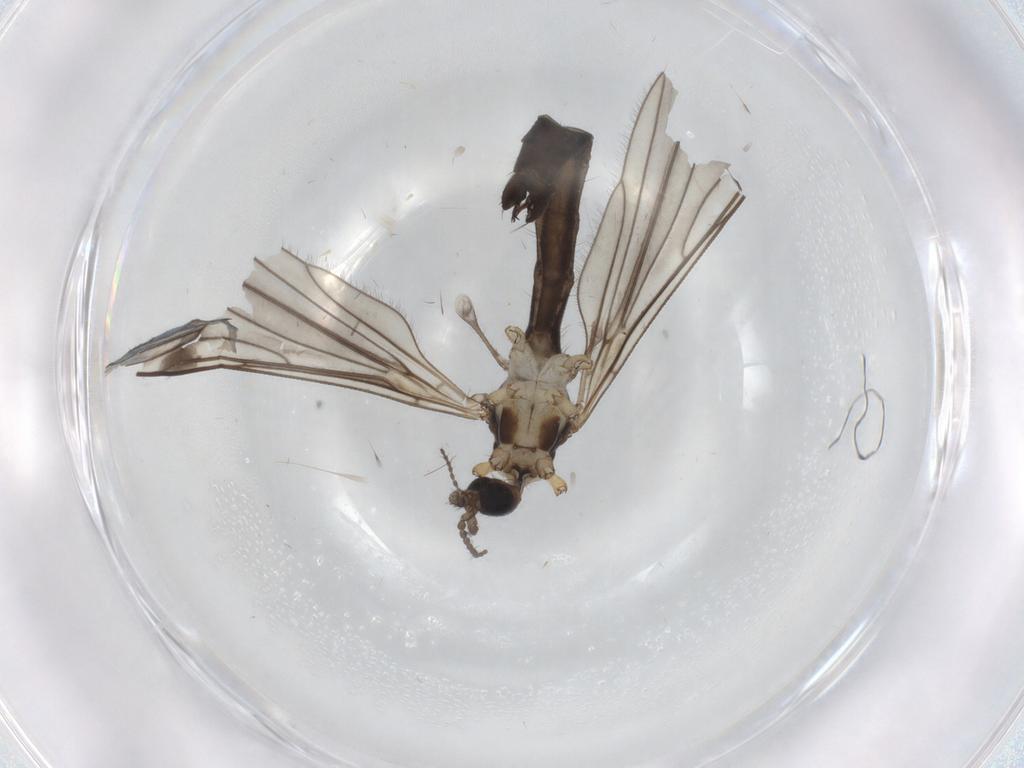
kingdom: Animalia
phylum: Arthropoda
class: Insecta
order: Diptera
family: Limoniidae
